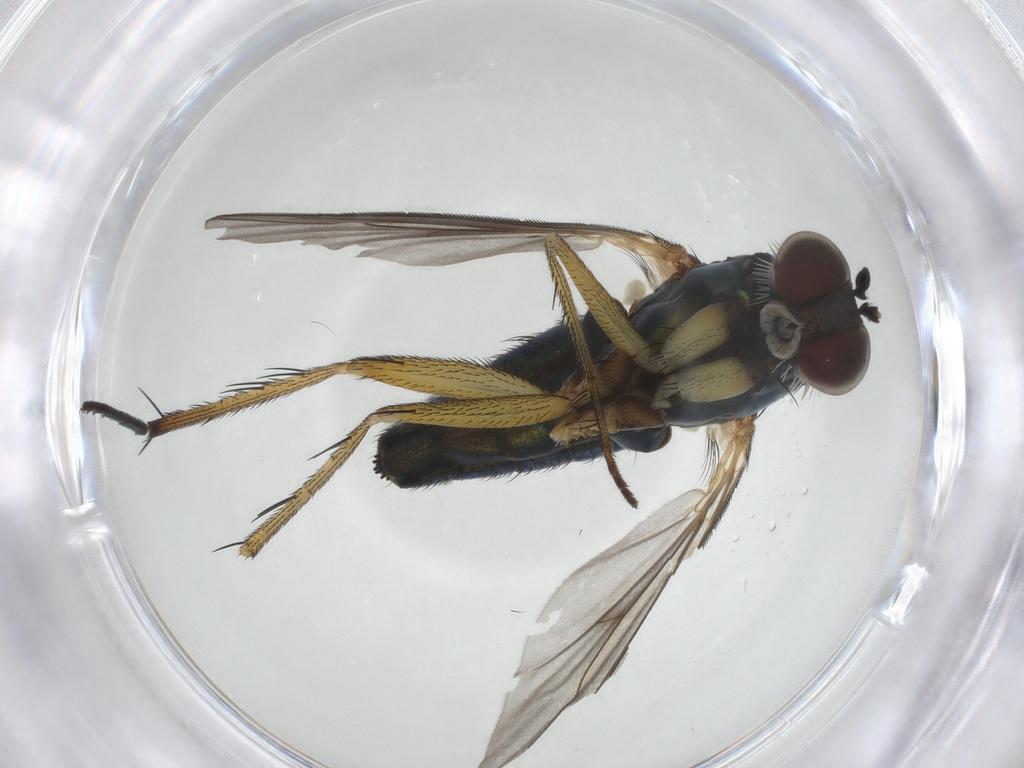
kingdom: Animalia
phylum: Arthropoda
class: Insecta
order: Diptera
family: Dolichopodidae
